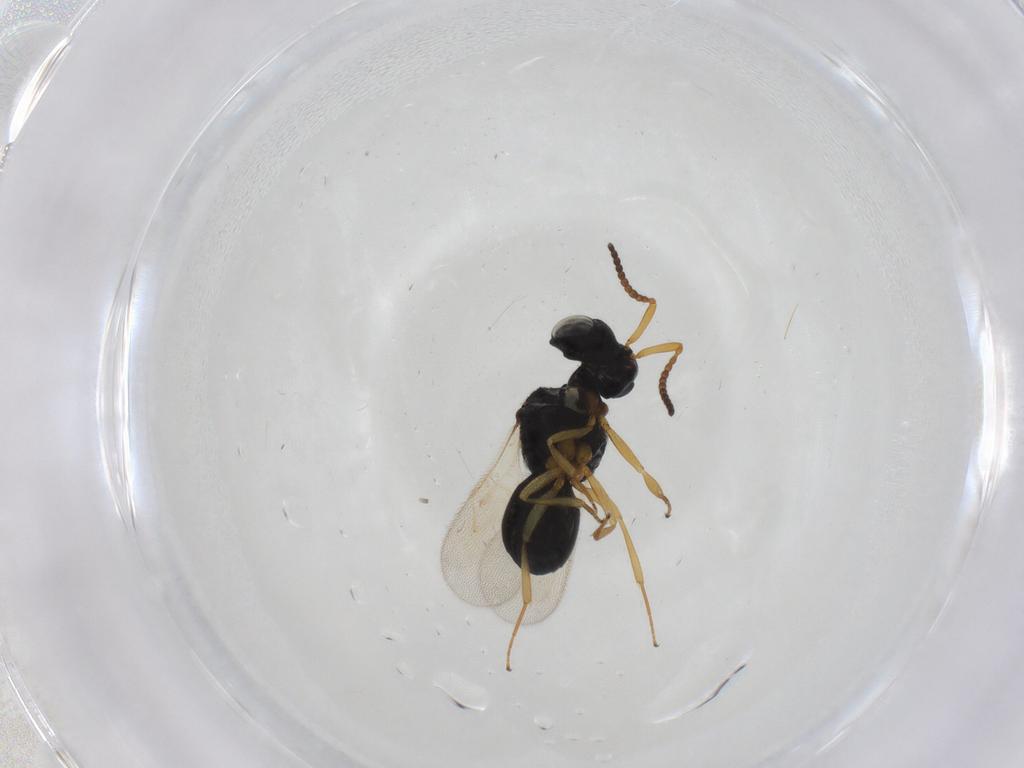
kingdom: Animalia
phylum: Arthropoda
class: Insecta
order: Hymenoptera
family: Scelionidae
